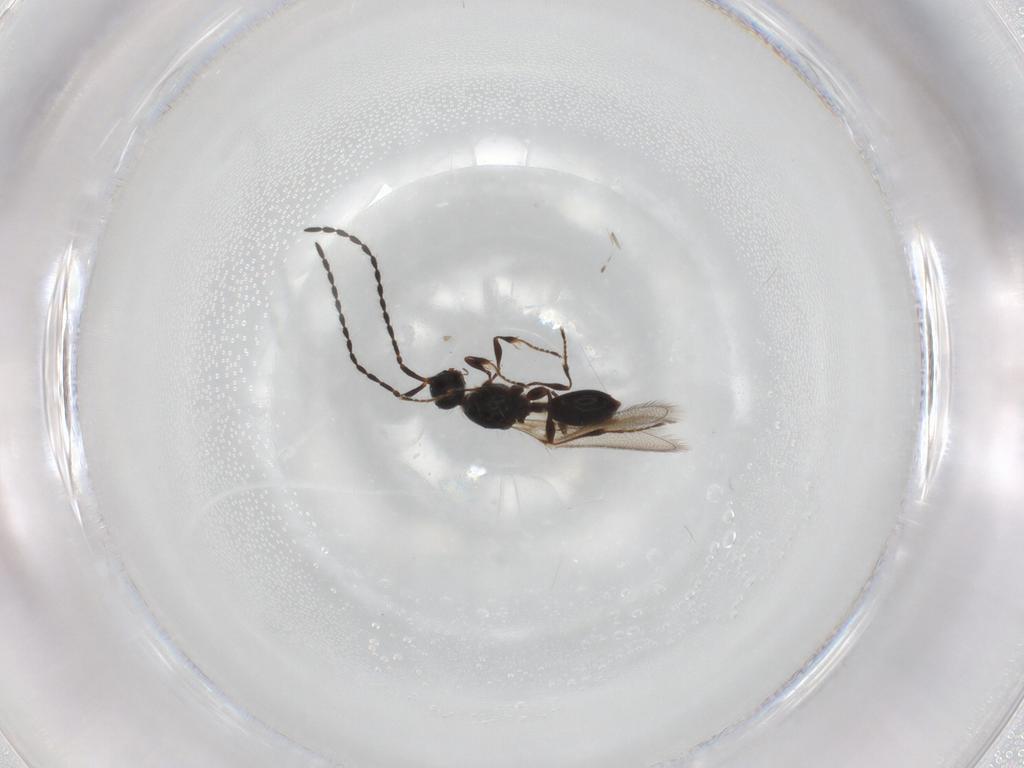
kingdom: Animalia
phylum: Arthropoda
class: Insecta
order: Hymenoptera
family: Diapriidae
